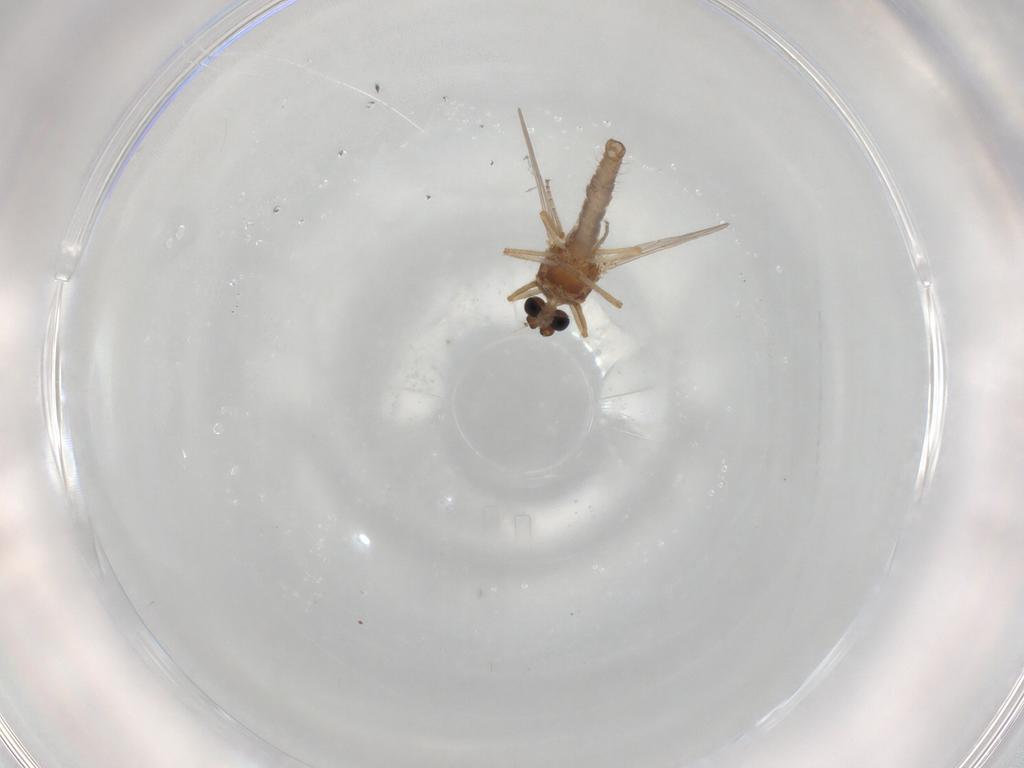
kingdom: Animalia
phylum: Arthropoda
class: Insecta
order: Diptera
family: Ceratopogonidae
